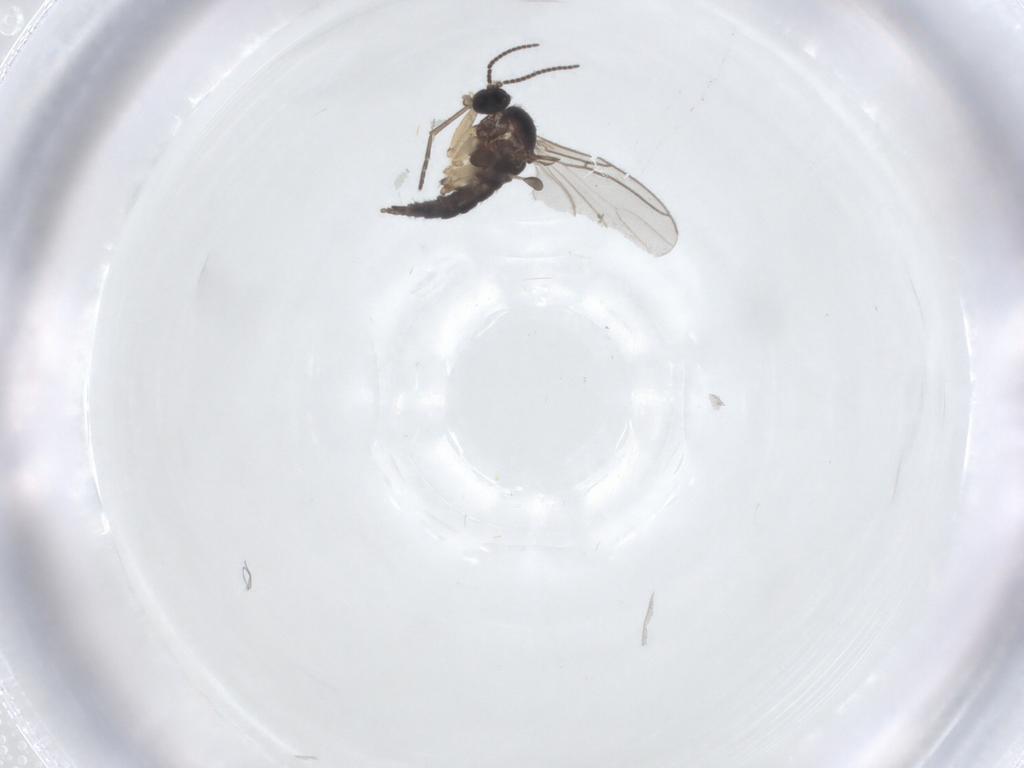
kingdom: Animalia
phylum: Arthropoda
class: Insecta
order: Diptera
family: Sciaridae
